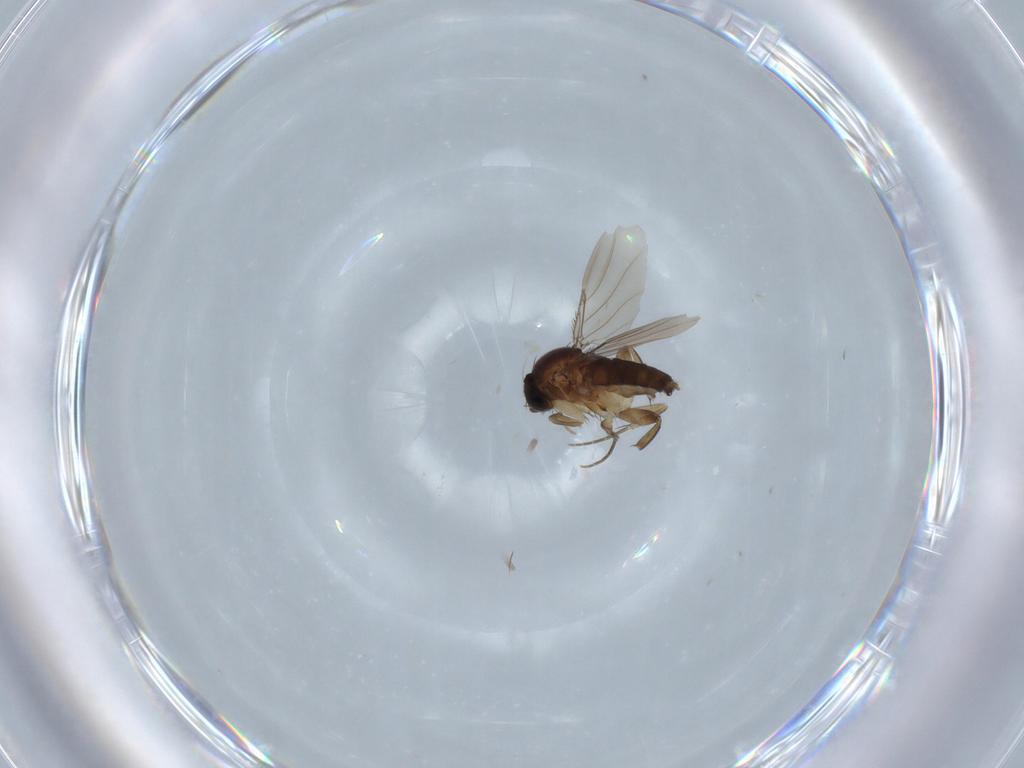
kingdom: Animalia
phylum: Arthropoda
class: Insecta
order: Diptera
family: Phoridae
